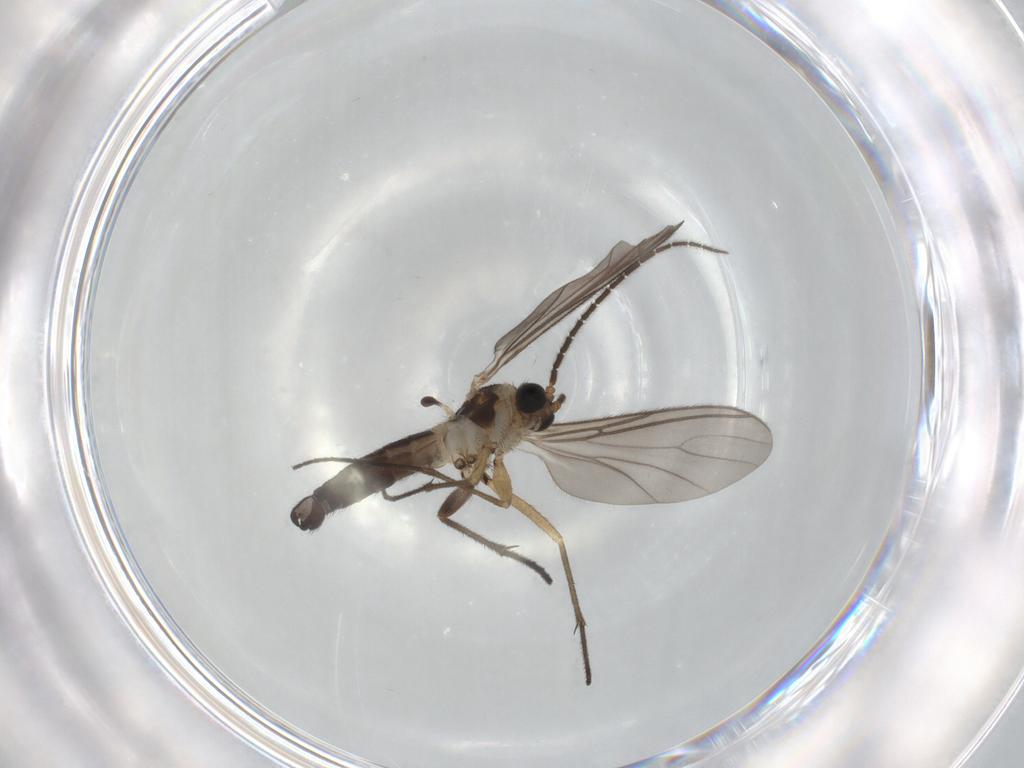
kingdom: Animalia
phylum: Arthropoda
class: Insecta
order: Diptera
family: Sciaridae
